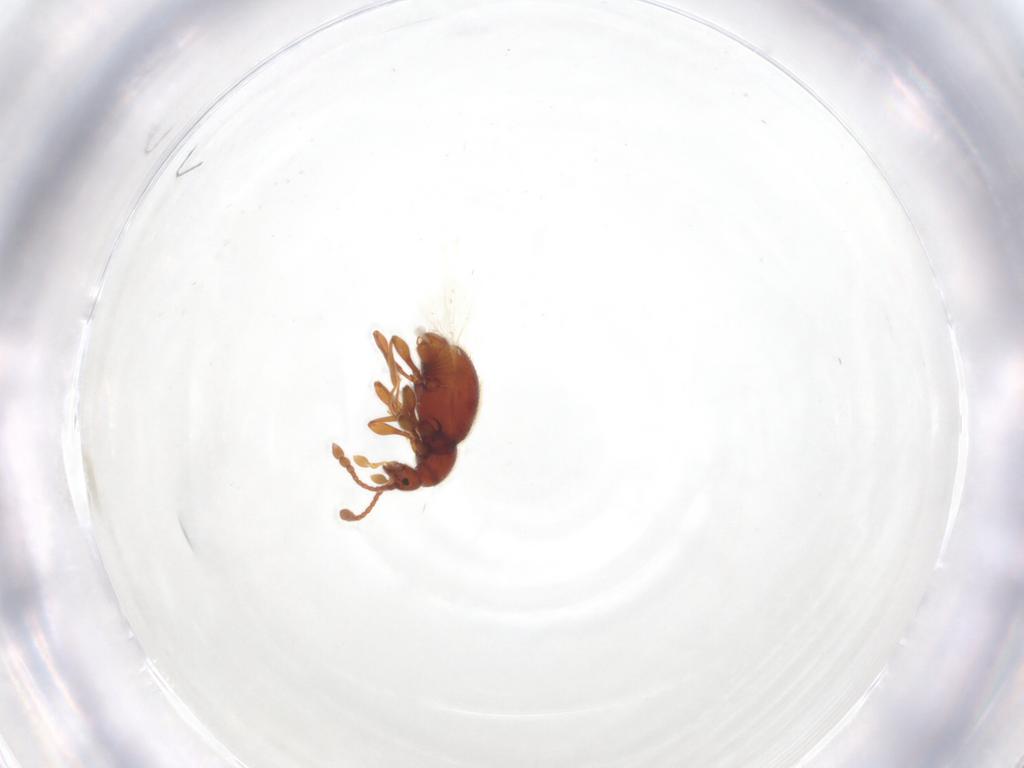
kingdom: Animalia
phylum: Arthropoda
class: Insecta
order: Coleoptera
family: Staphylinidae
